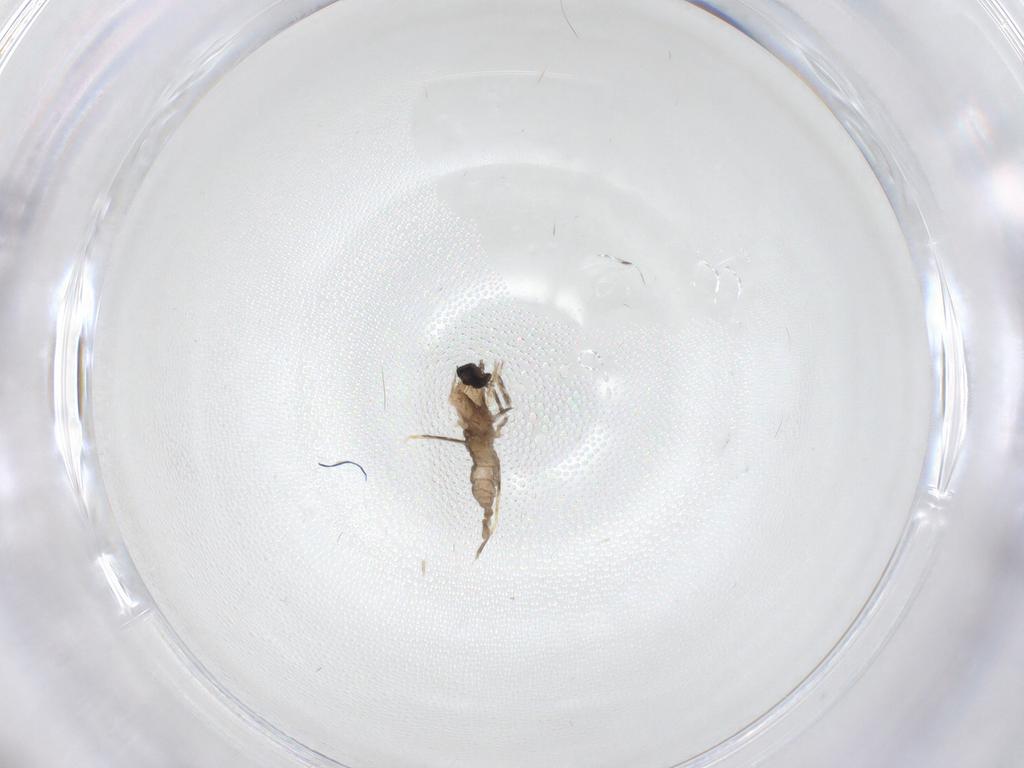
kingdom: Animalia
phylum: Arthropoda
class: Insecta
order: Diptera
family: Cecidomyiidae
